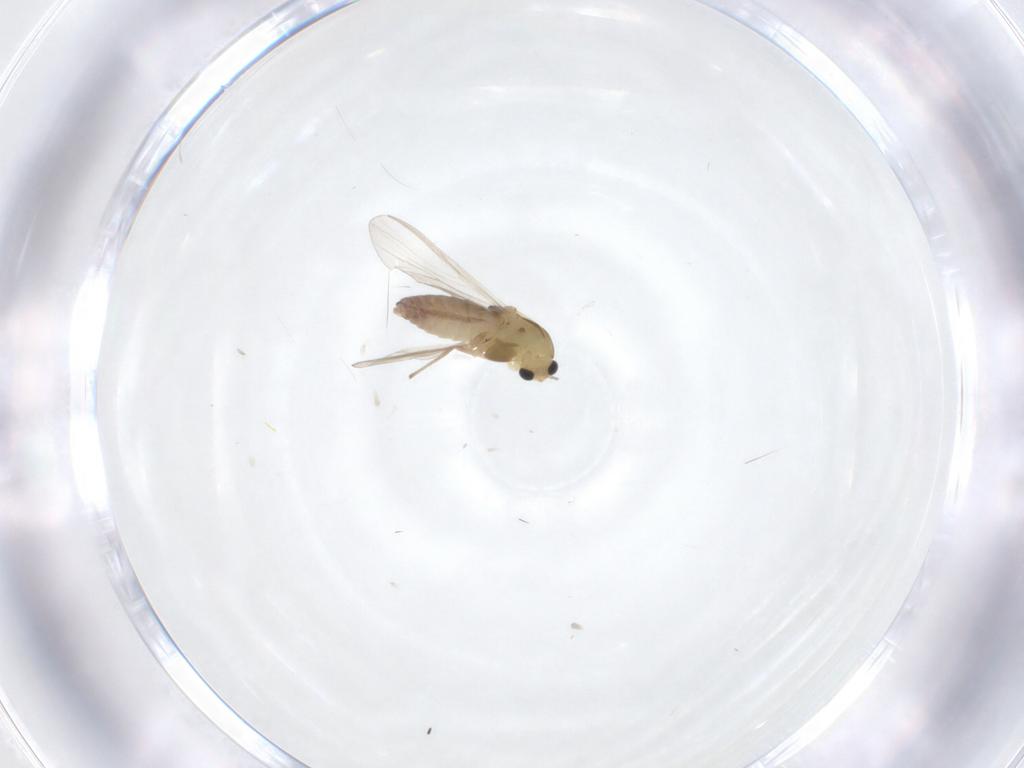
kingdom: Animalia
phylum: Arthropoda
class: Insecta
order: Diptera
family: Chironomidae
